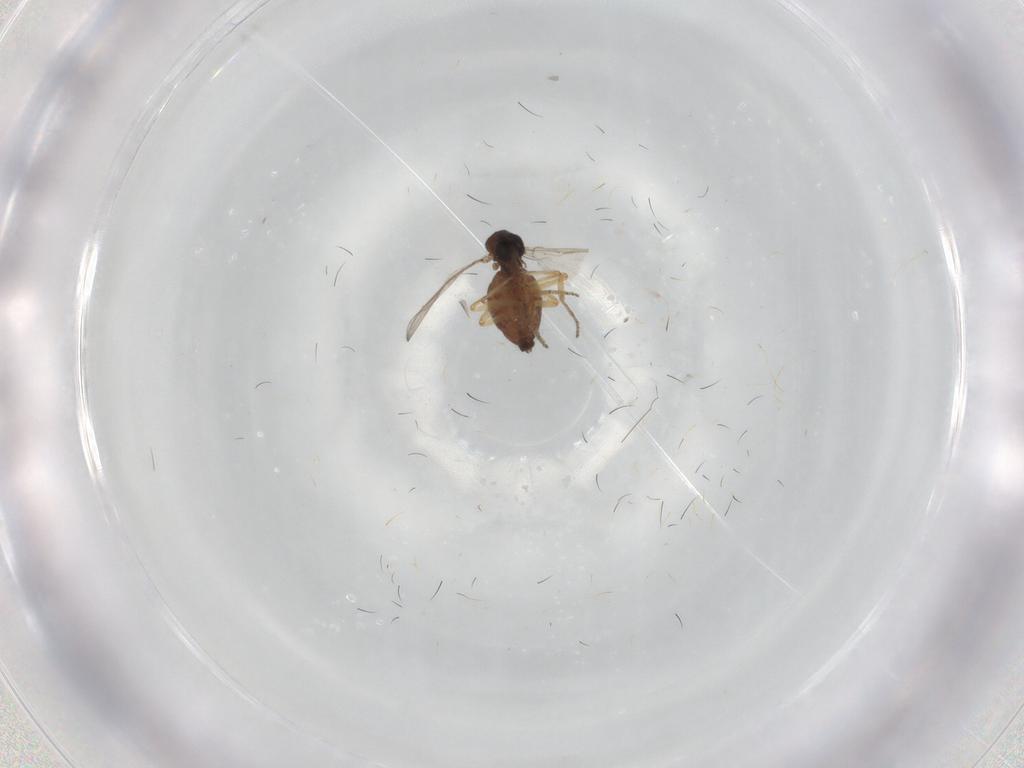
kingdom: Animalia
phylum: Arthropoda
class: Insecta
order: Diptera
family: Ceratopogonidae
